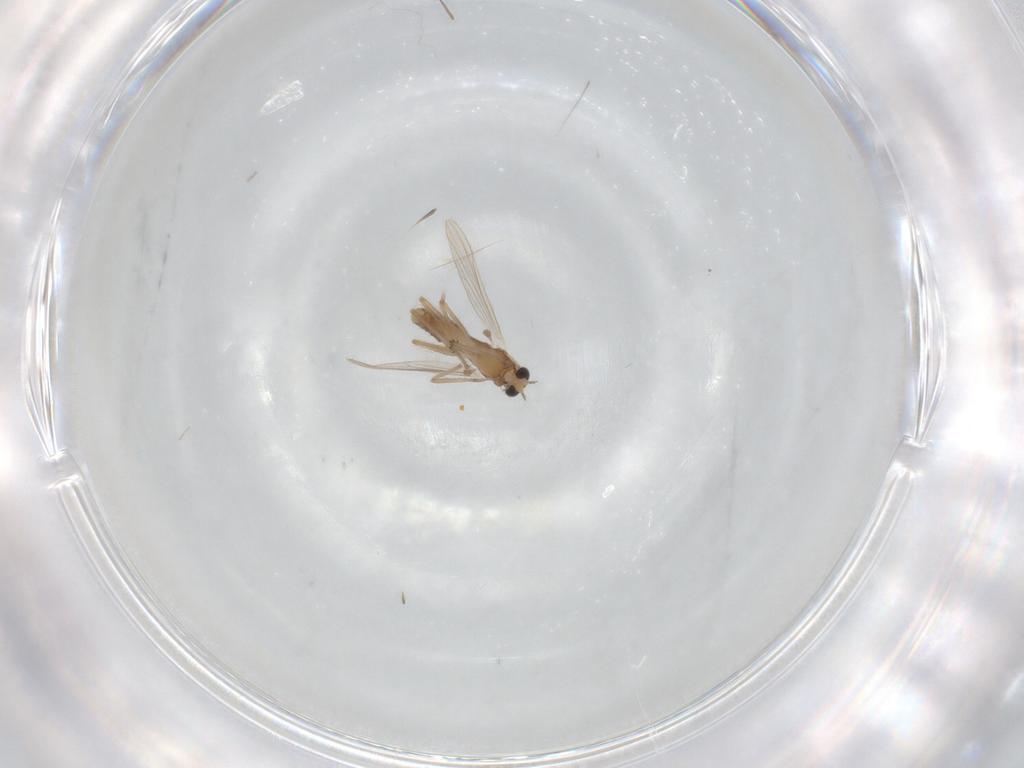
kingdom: Animalia
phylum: Arthropoda
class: Insecta
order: Diptera
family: Chironomidae
